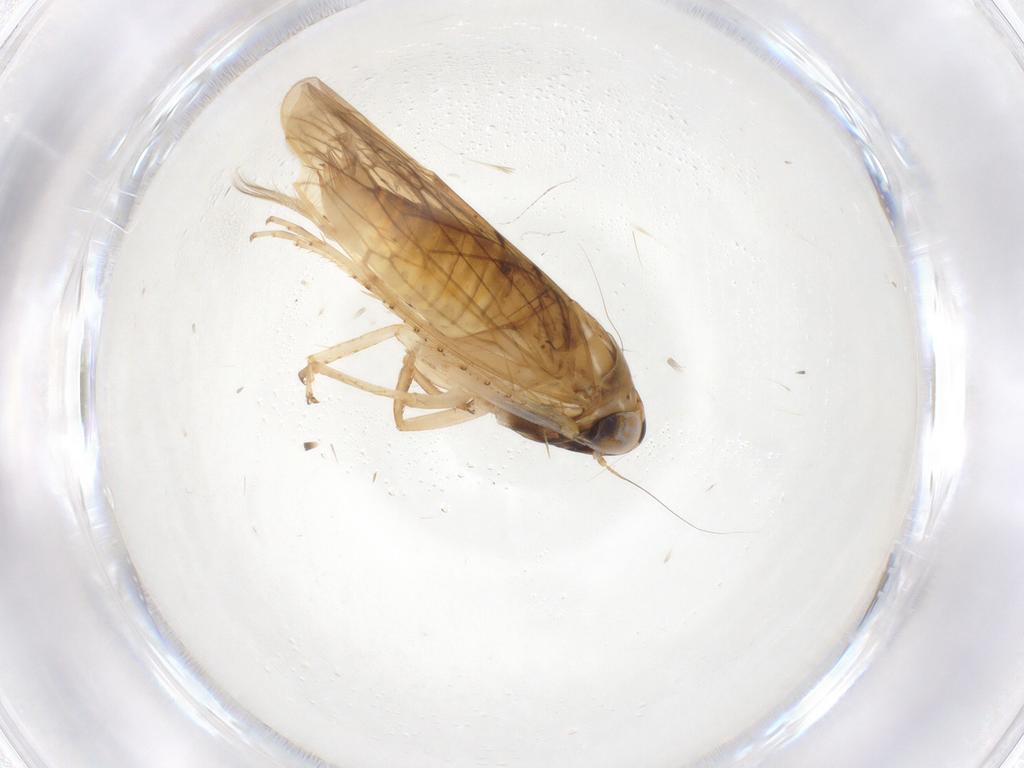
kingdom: Animalia
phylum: Arthropoda
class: Insecta
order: Hemiptera
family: Cicadellidae
